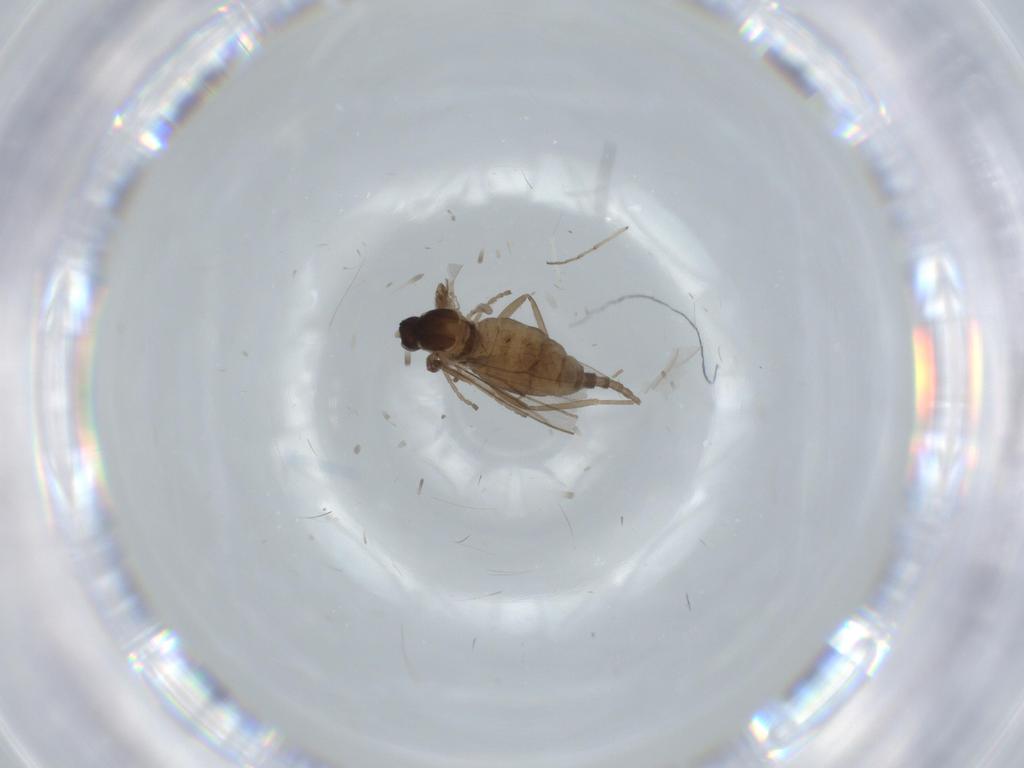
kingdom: Animalia
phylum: Arthropoda
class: Insecta
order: Diptera
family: Cecidomyiidae
